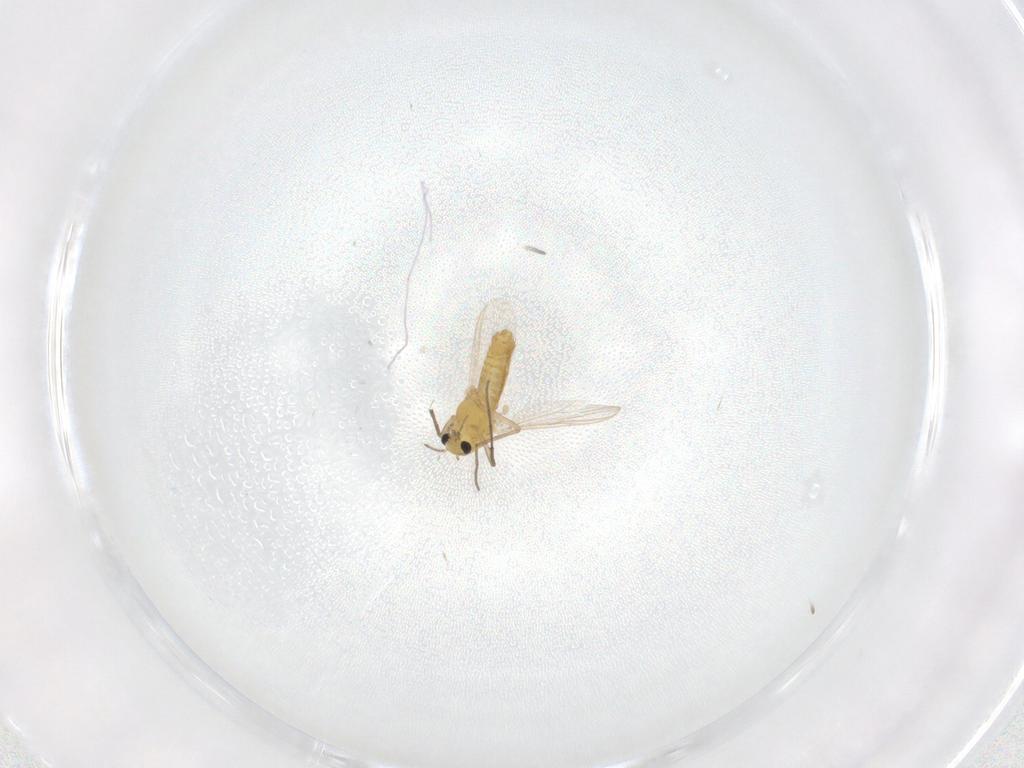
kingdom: Animalia
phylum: Arthropoda
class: Insecta
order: Diptera
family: Chironomidae
